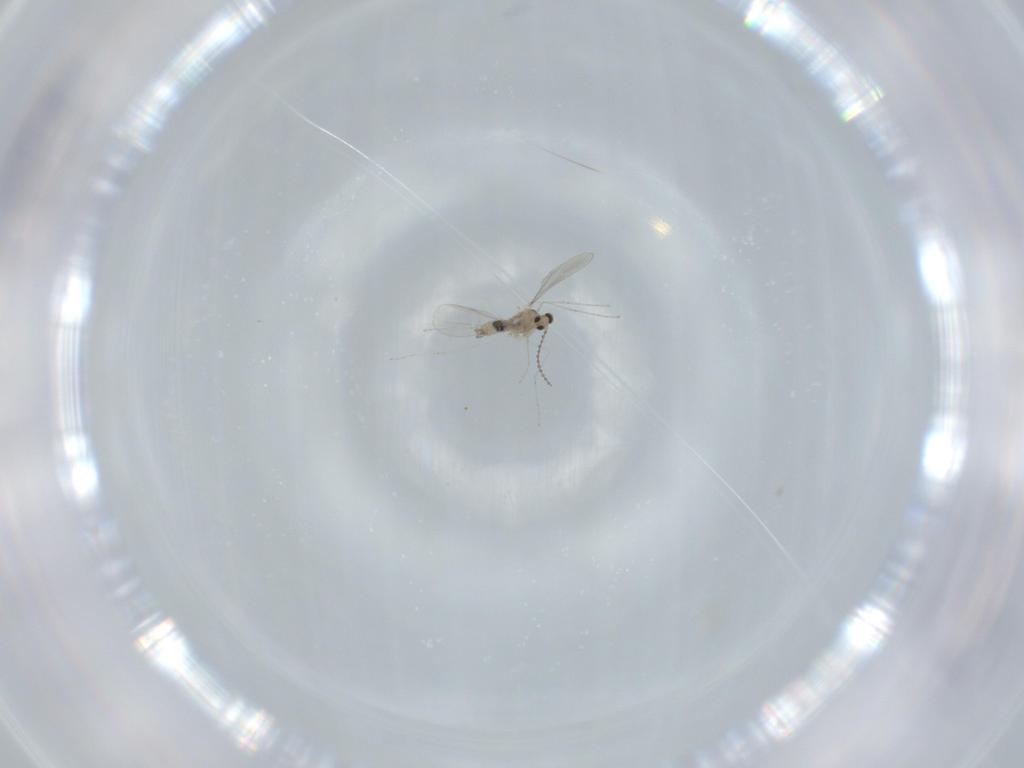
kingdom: Animalia
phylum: Arthropoda
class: Insecta
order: Diptera
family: Cecidomyiidae
